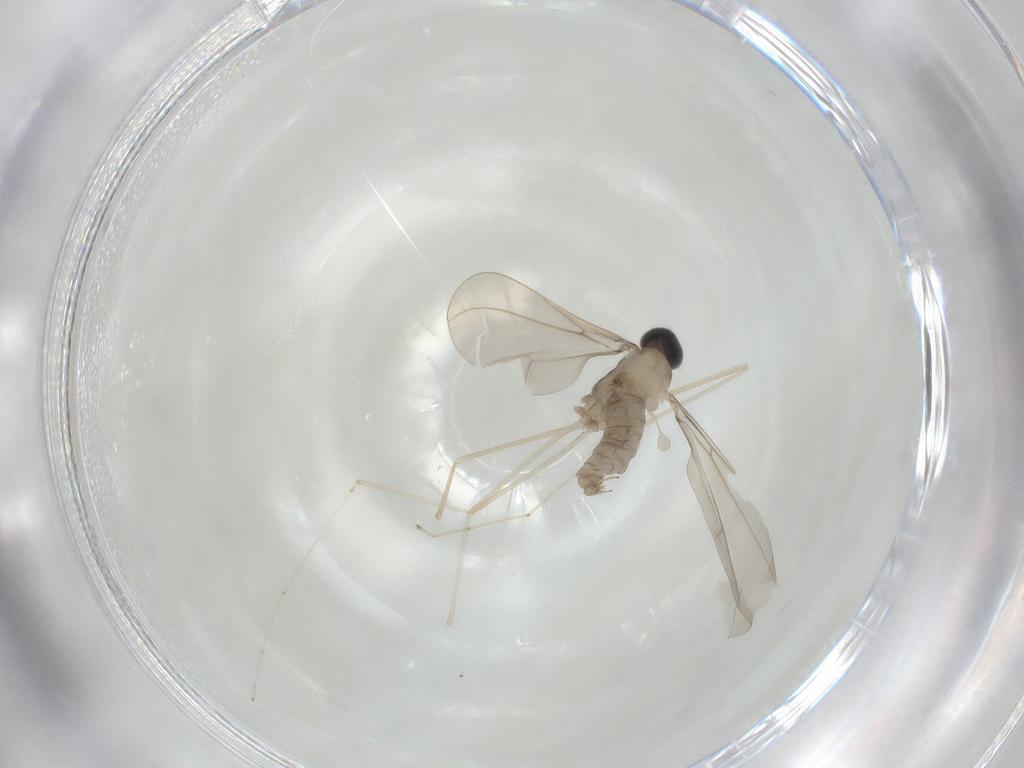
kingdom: Animalia
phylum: Arthropoda
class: Insecta
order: Diptera
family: Cecidomyiidae
